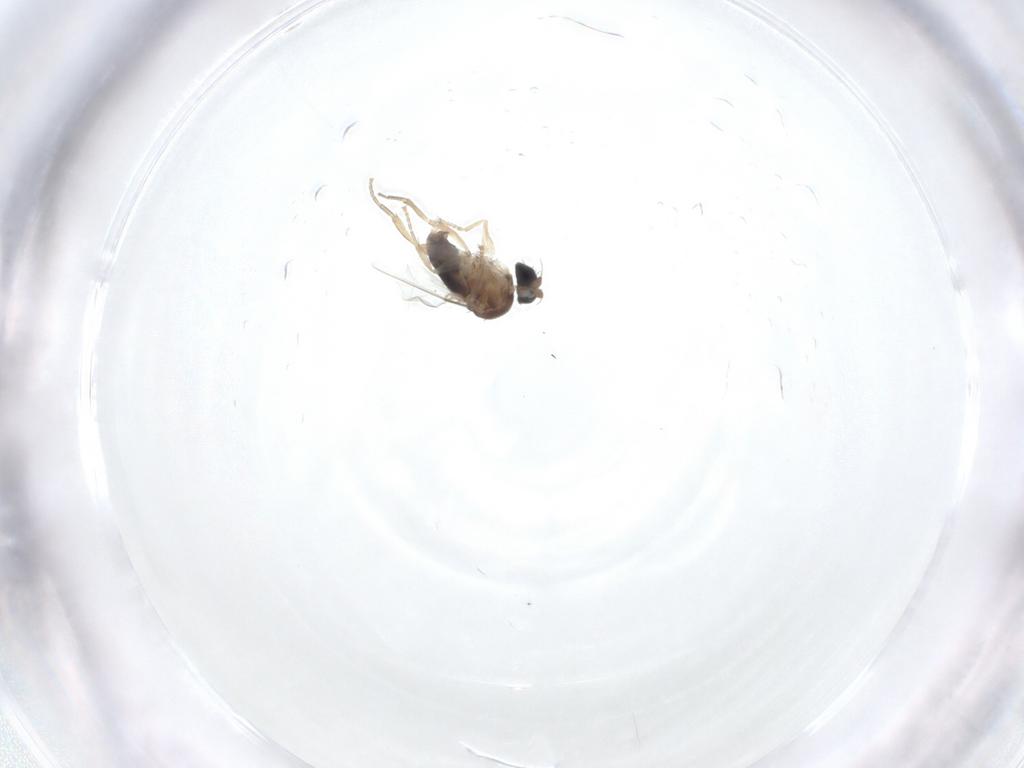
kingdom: Animalia
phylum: Arthropoda
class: Insecta
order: Diptera
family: Phoridae
